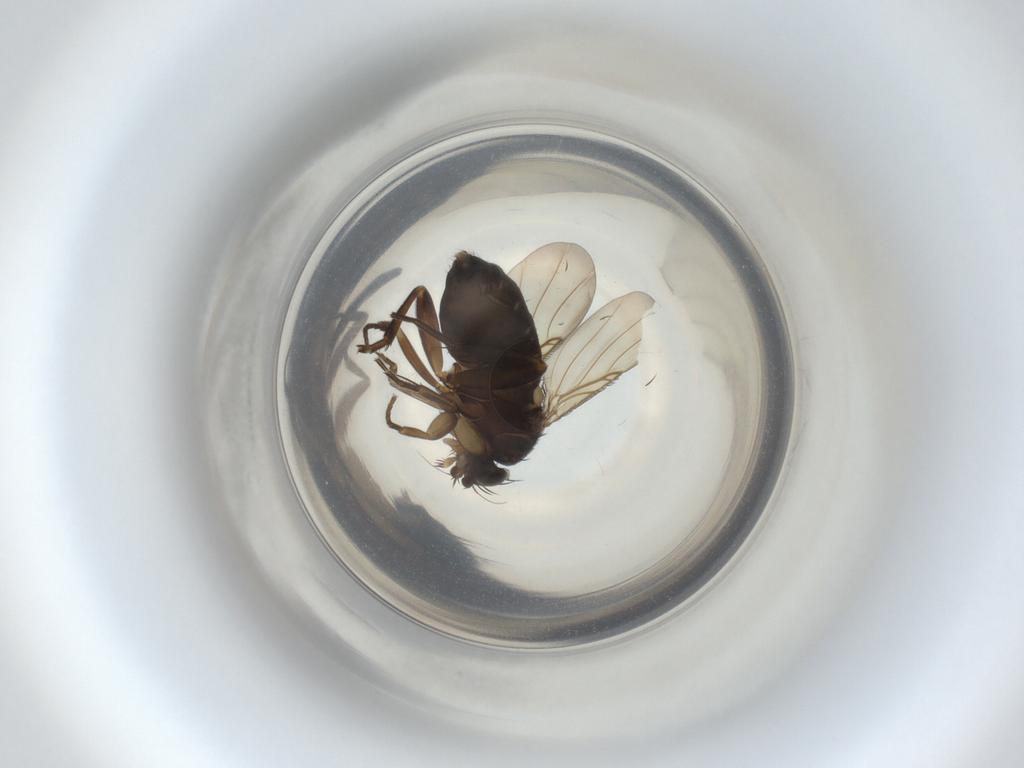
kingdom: Animalia
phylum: Arthropoda
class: Insecta
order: Diptera
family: Phoridae
